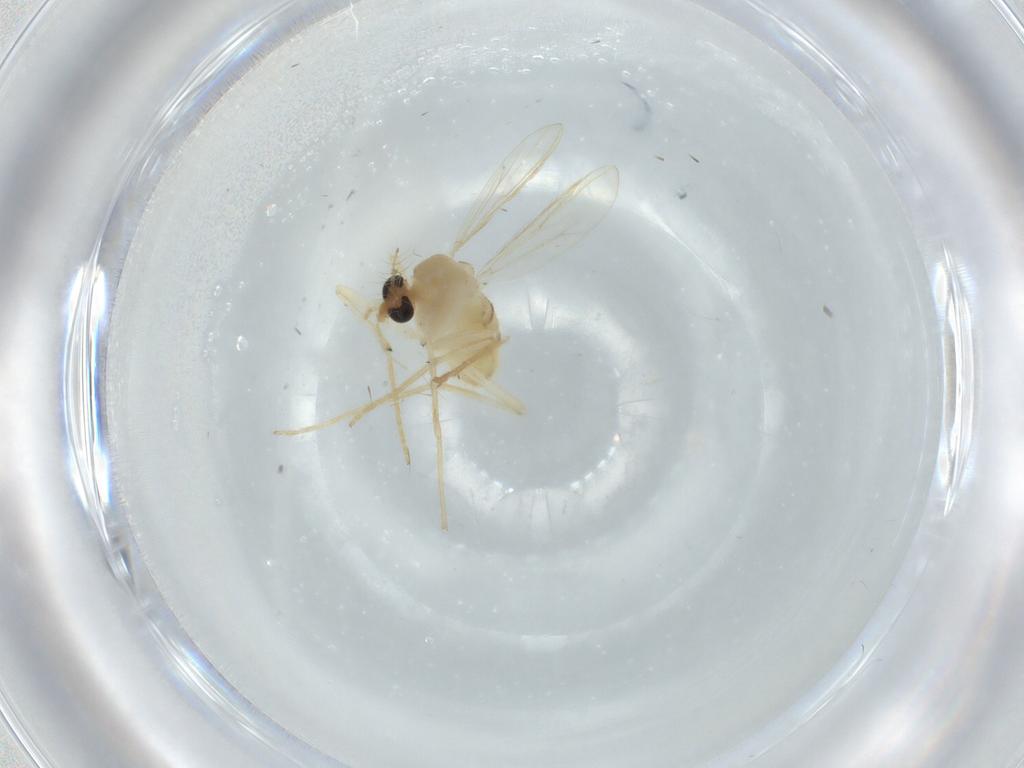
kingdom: Animalia
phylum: Arthropoda
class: Insecta
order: Diptera
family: Chironomidae
